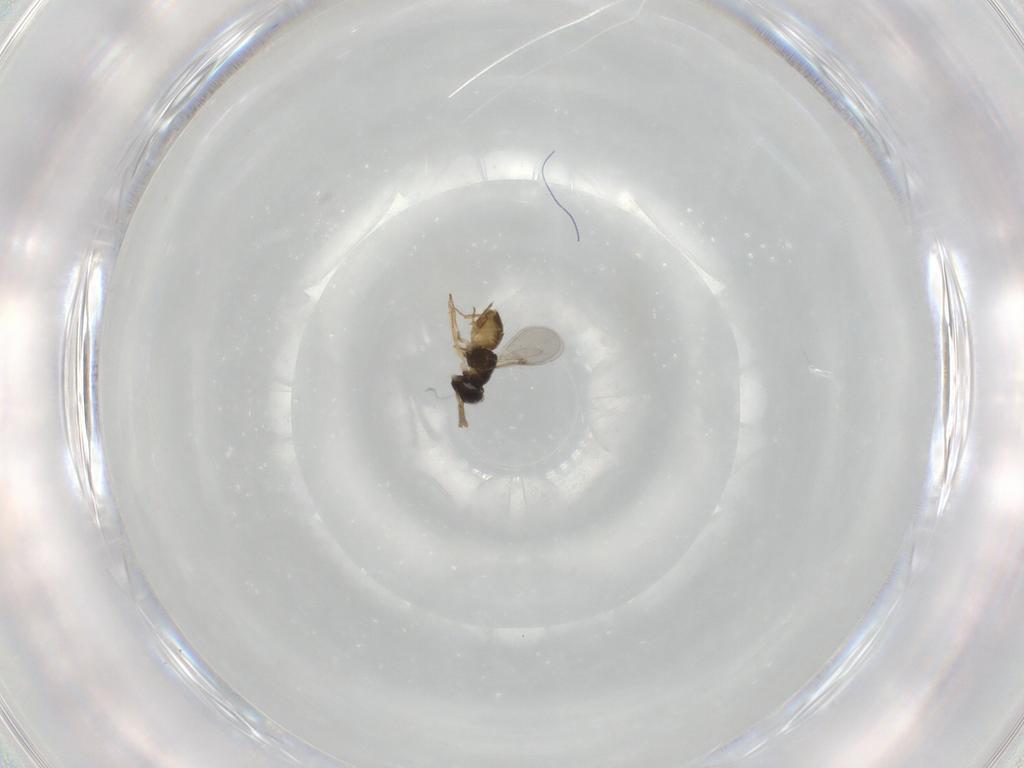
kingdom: Animalia
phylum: Arthropoda
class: Insecta
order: Hymenoptera
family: Encyrtidae
